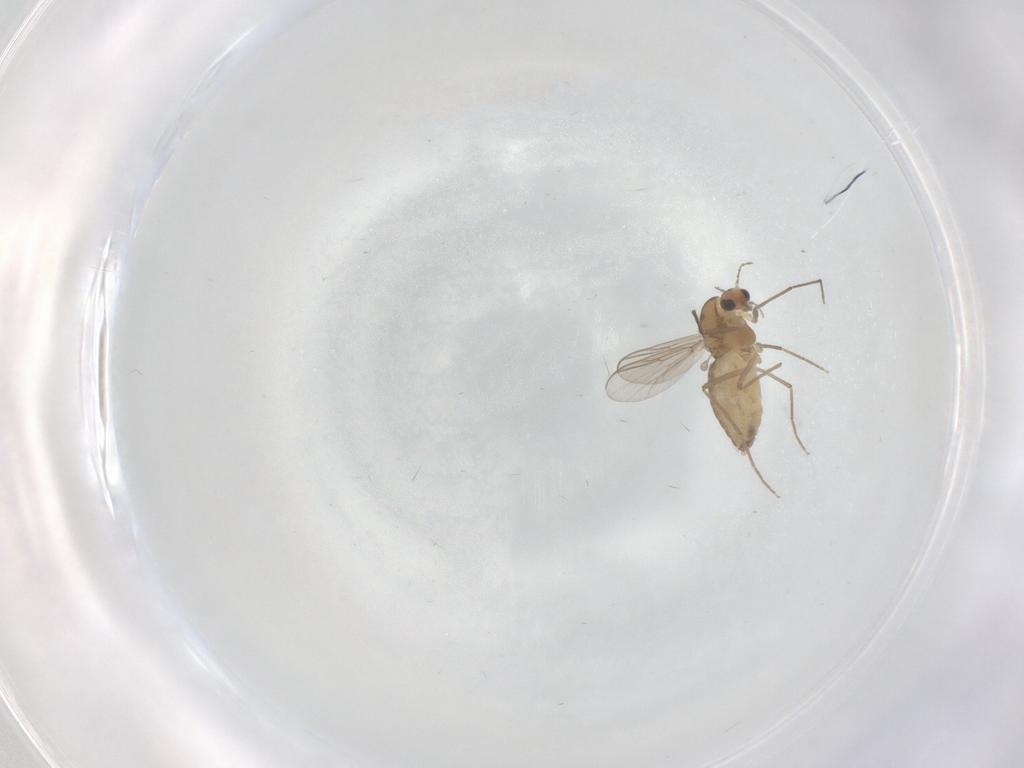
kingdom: Animalia
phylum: Arthropoda
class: Insecta
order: Diptera
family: Chironomidae
